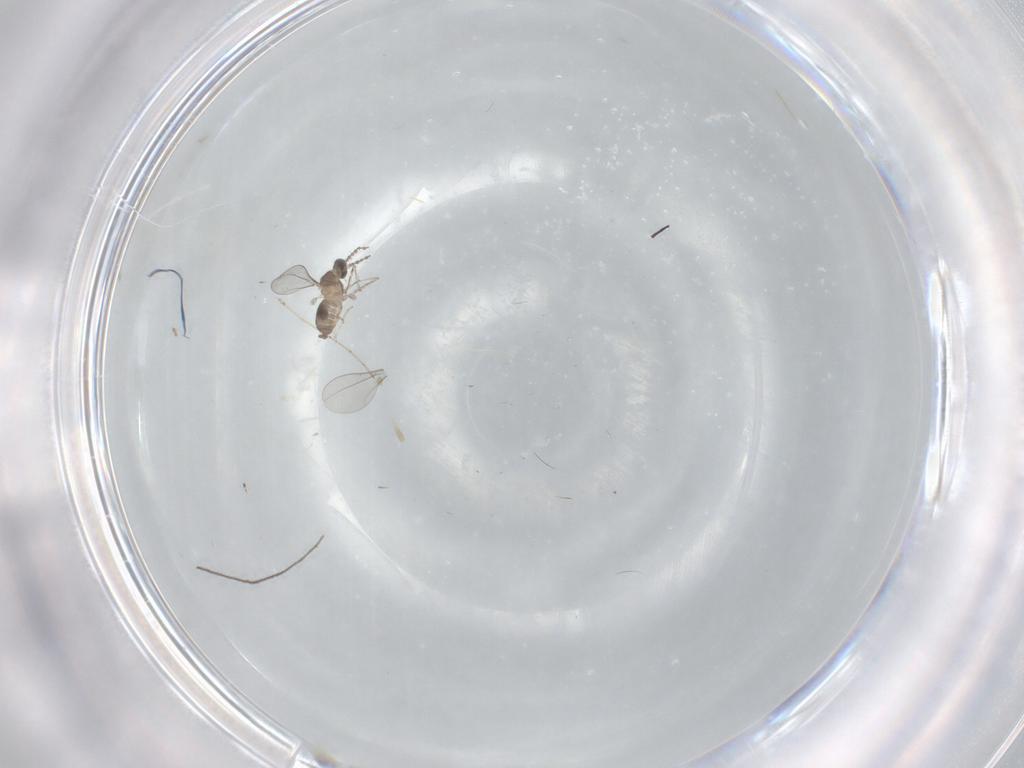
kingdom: Animalia
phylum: Arthropoda
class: Insecta
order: Diptera
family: Cecidomyiidae
